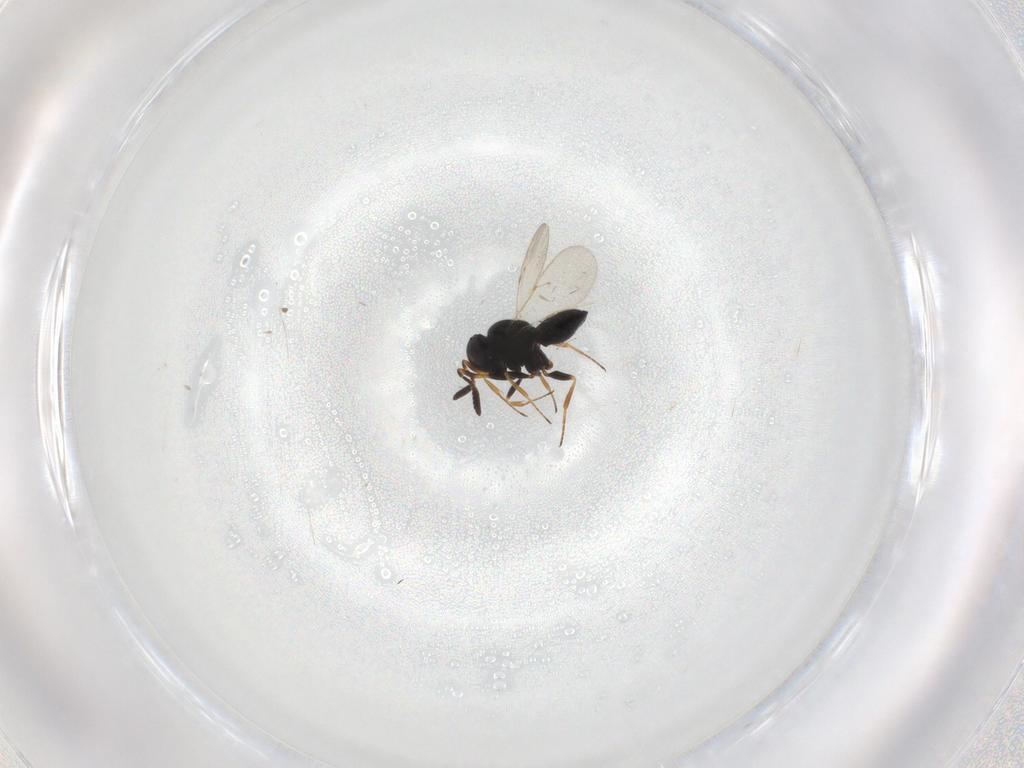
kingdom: Animalia
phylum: Arthropoda
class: Insecta
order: Coleoptera
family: Curculionidae
